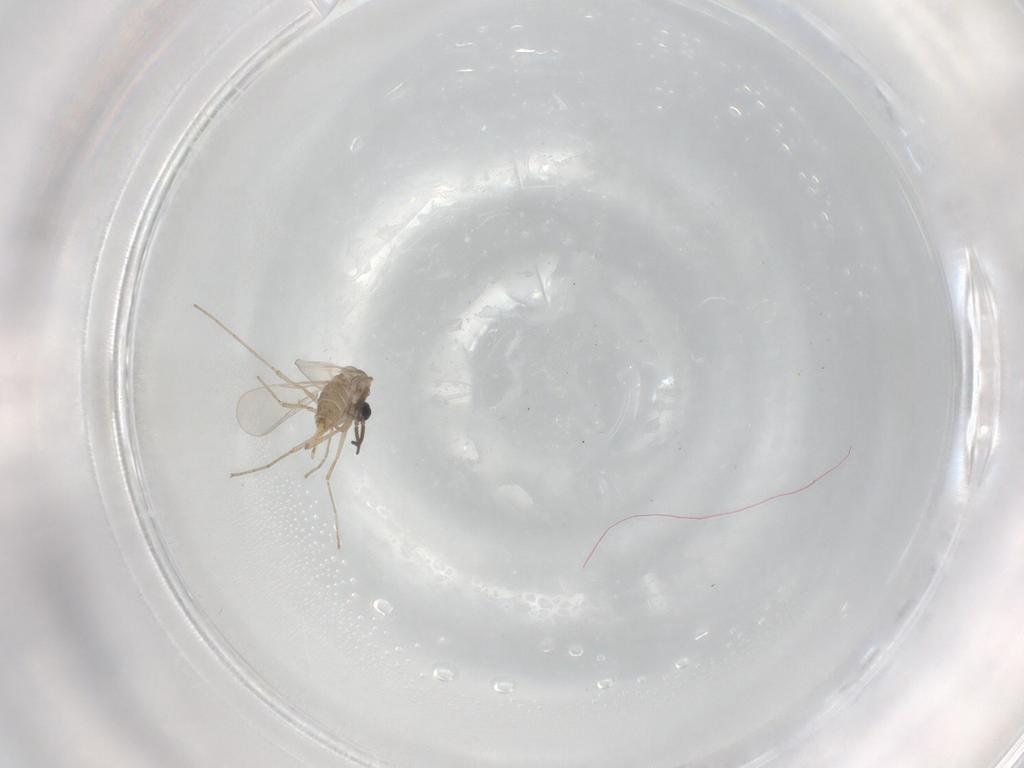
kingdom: Animalia
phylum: Arthropoda
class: Insecta
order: Diptera
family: Cecidomyiidae
